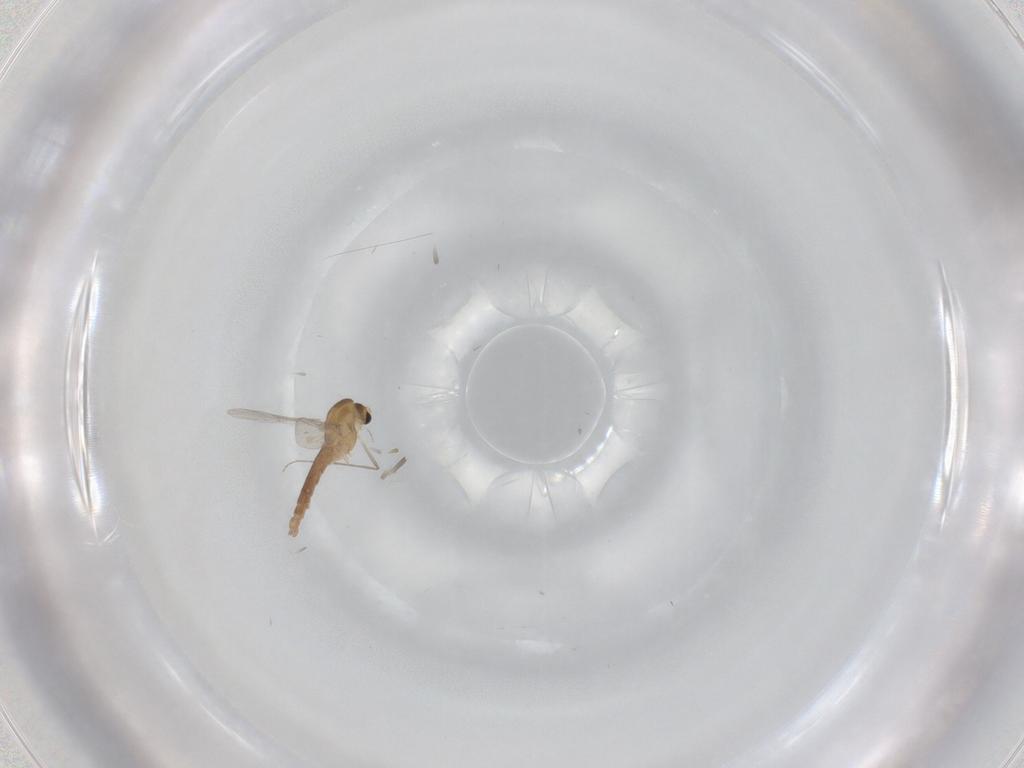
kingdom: Animalia
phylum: Arthropoda
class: Insecta
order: Diptera
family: Chironomidae
